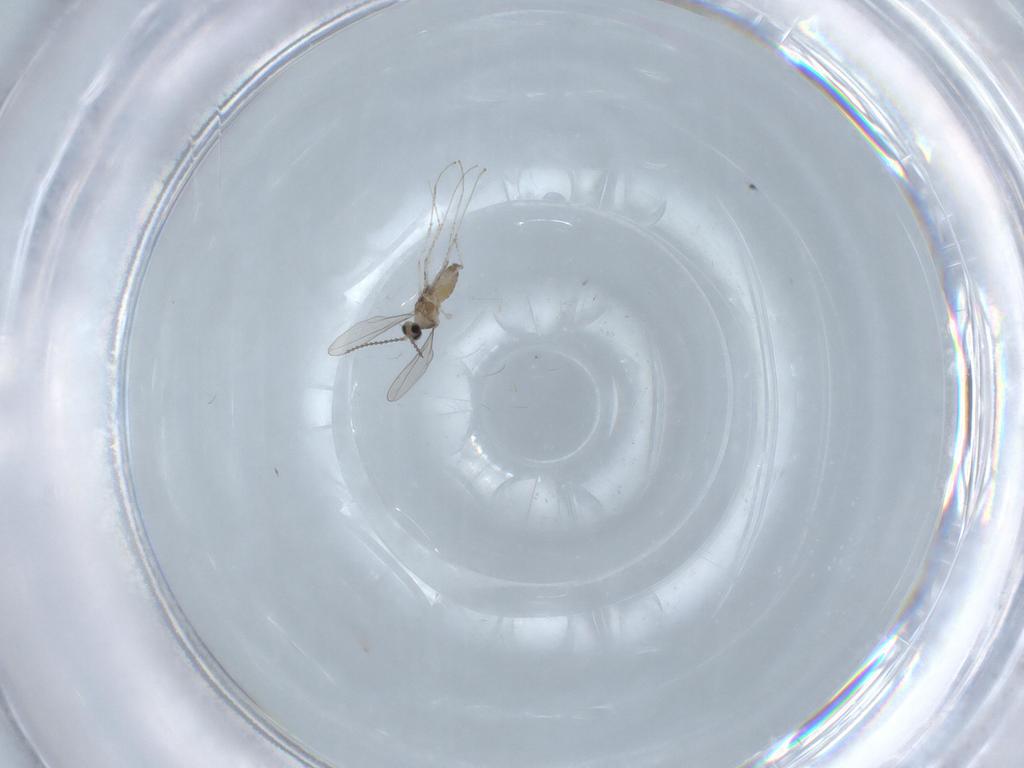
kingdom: Animalia
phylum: Arthropoda
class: Insecta
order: Diptera
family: Cecidomyiidae
